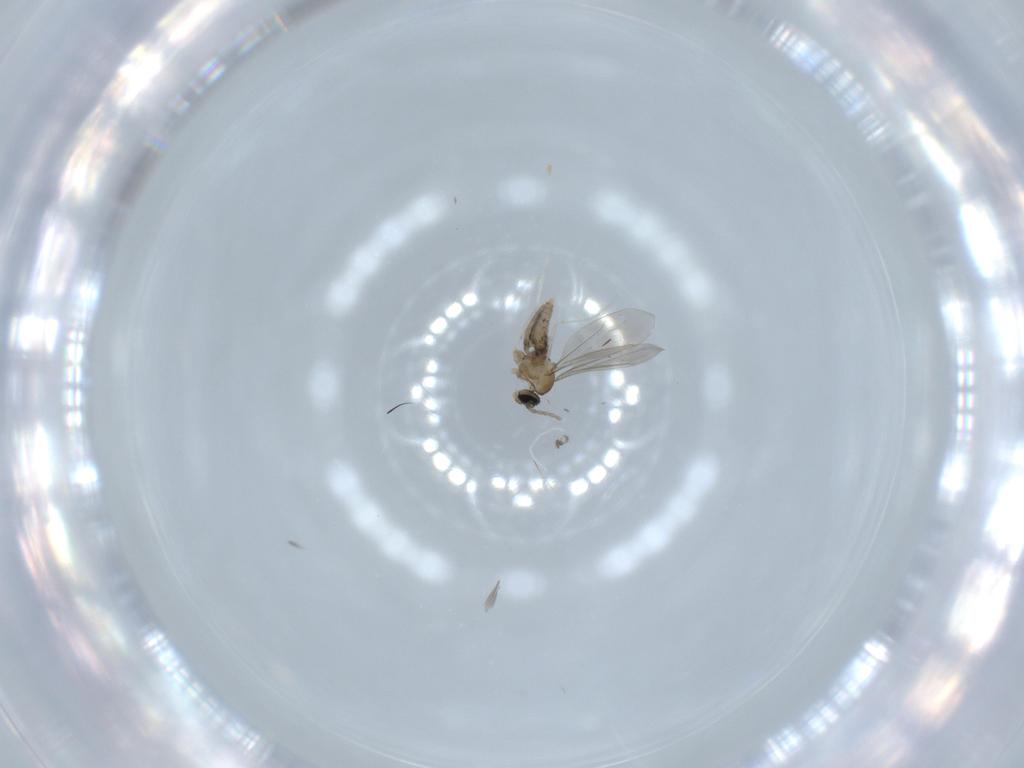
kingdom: Animalia
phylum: Arthropoda
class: Insecta
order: Diptera
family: Cecidomyiidae
